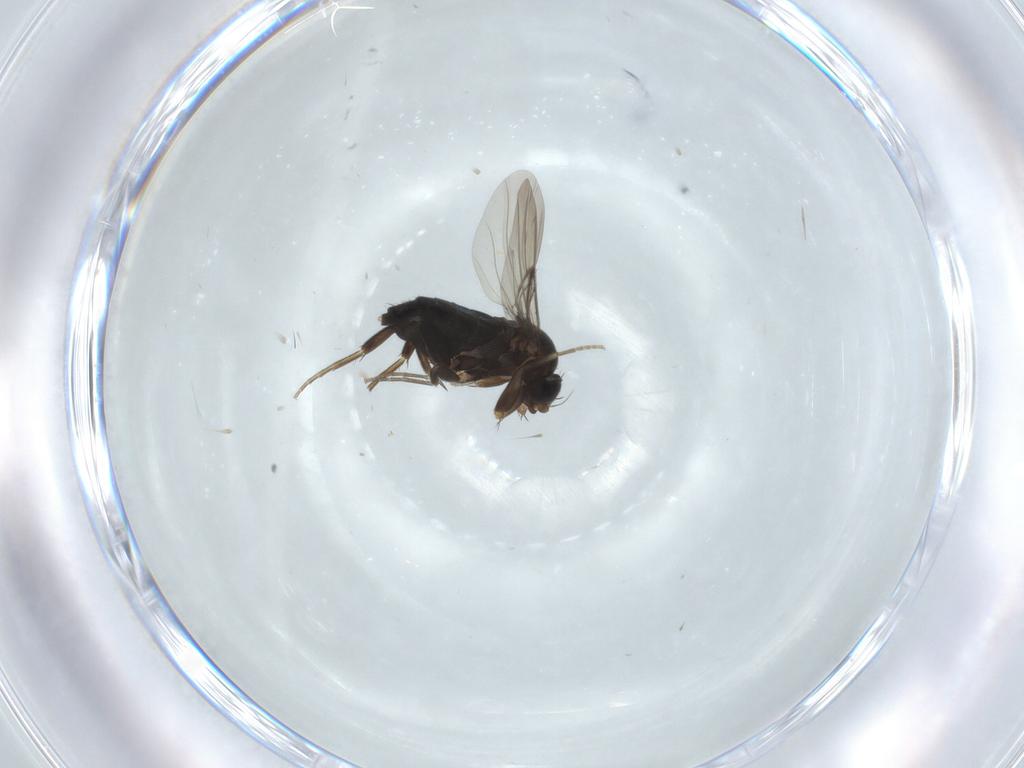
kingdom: Animalia
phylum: Arthropoda
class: Insecta
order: Diptera
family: Phoridae
